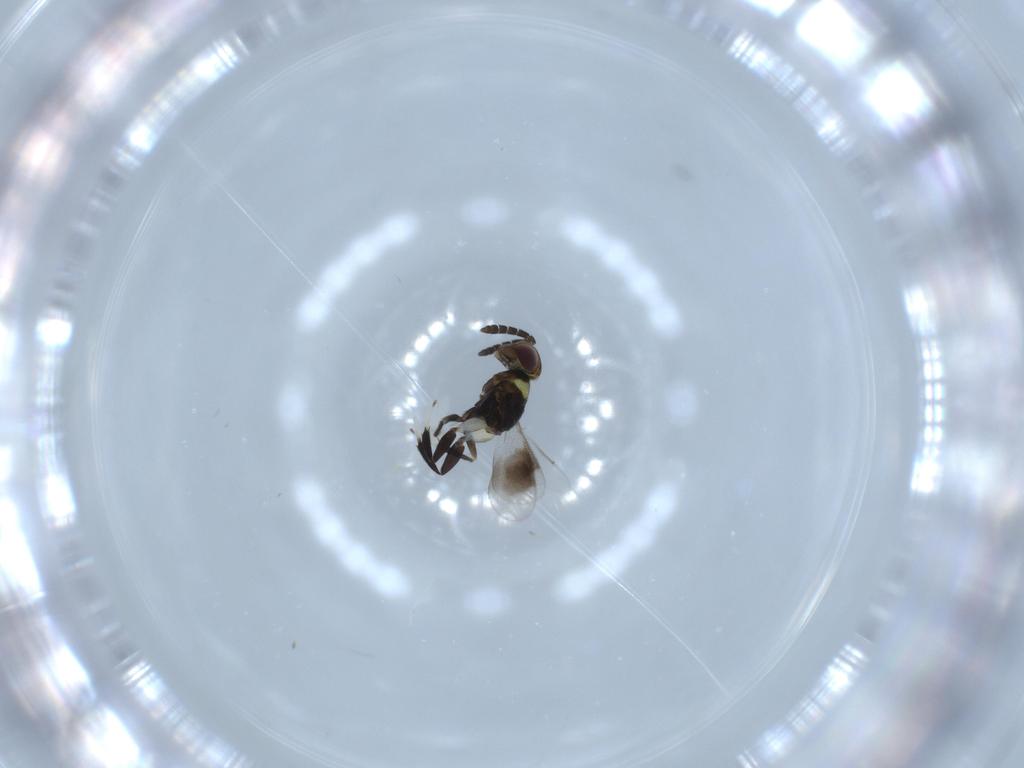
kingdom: Animalia
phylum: Arthropoda
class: Insecta
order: Hymenoptera
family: Aphelinidae
